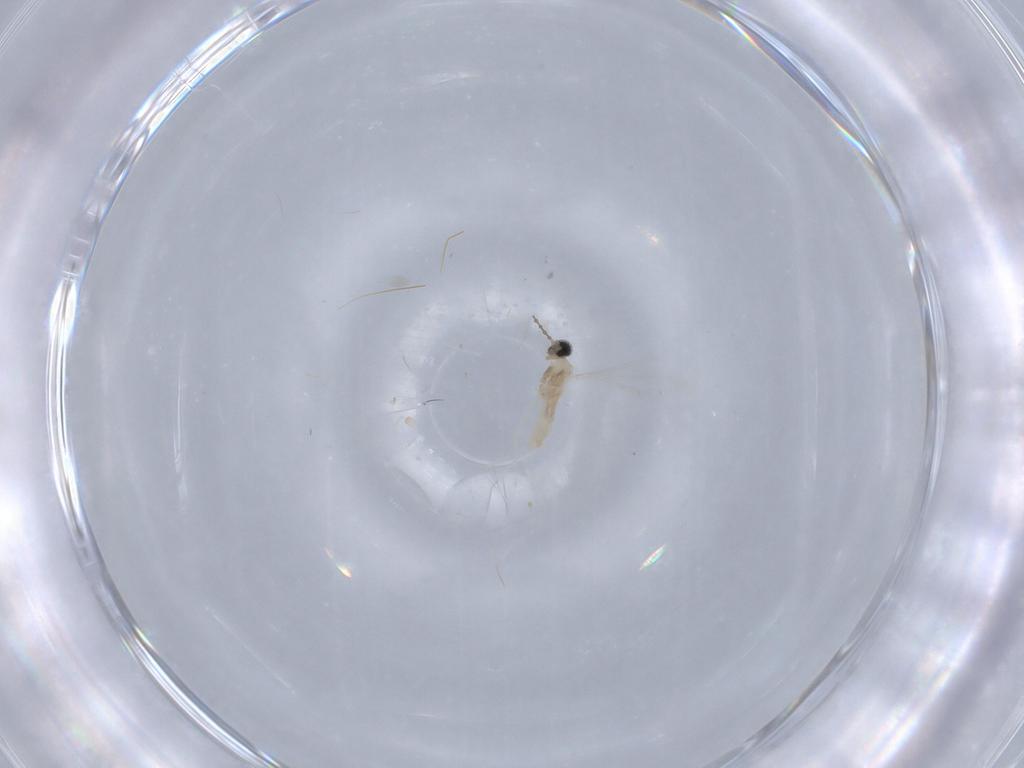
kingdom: Animalia
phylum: Arthropoda
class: Insecta
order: Diptera
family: Cecidomyiidae
